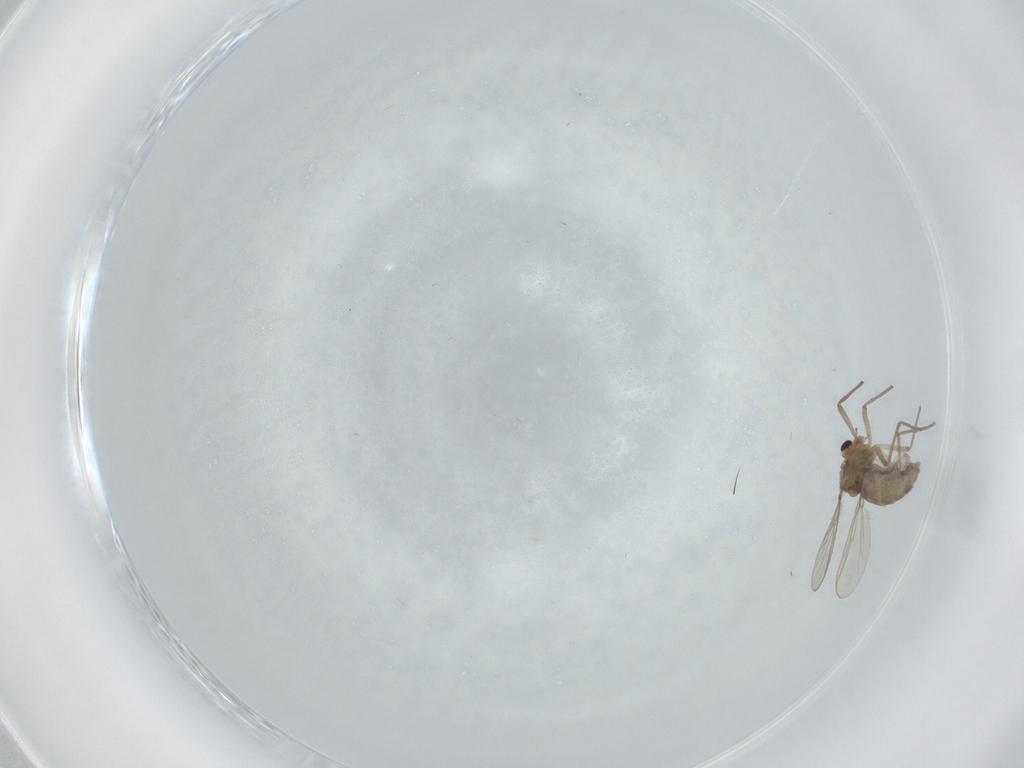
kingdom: Animalia
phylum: Arthropoda
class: Insecta
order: Diptera
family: Chironomidae
